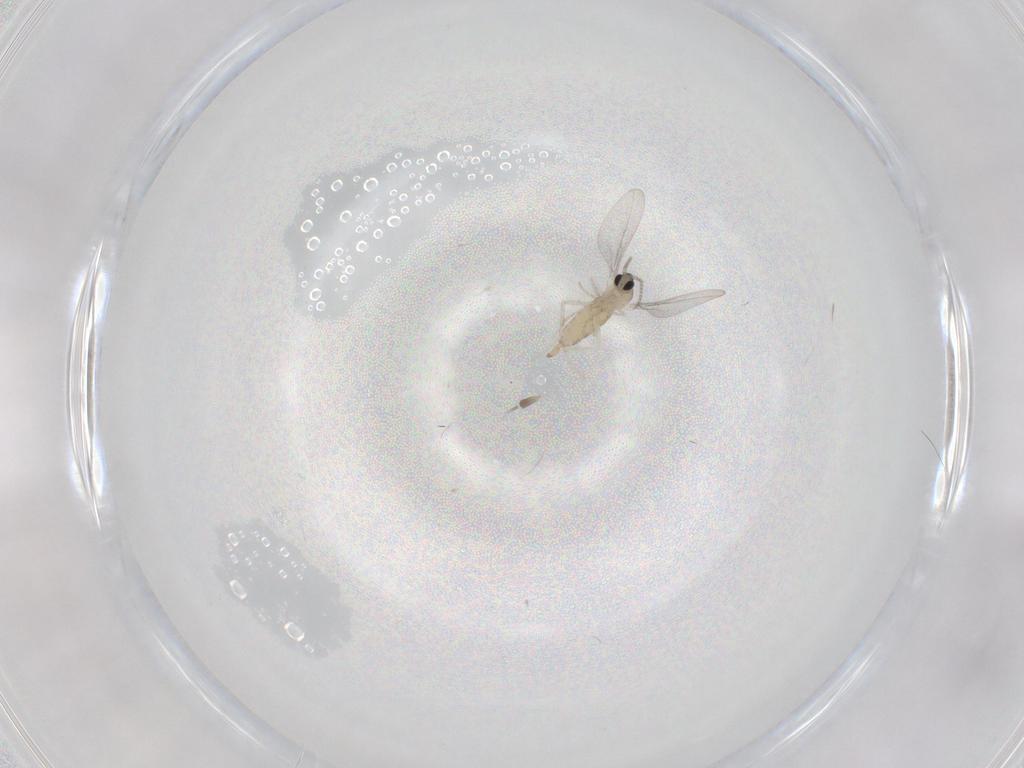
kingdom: Animalia
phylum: Arthropoda
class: Insecta
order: Diptera
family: Cecidomyiidae
